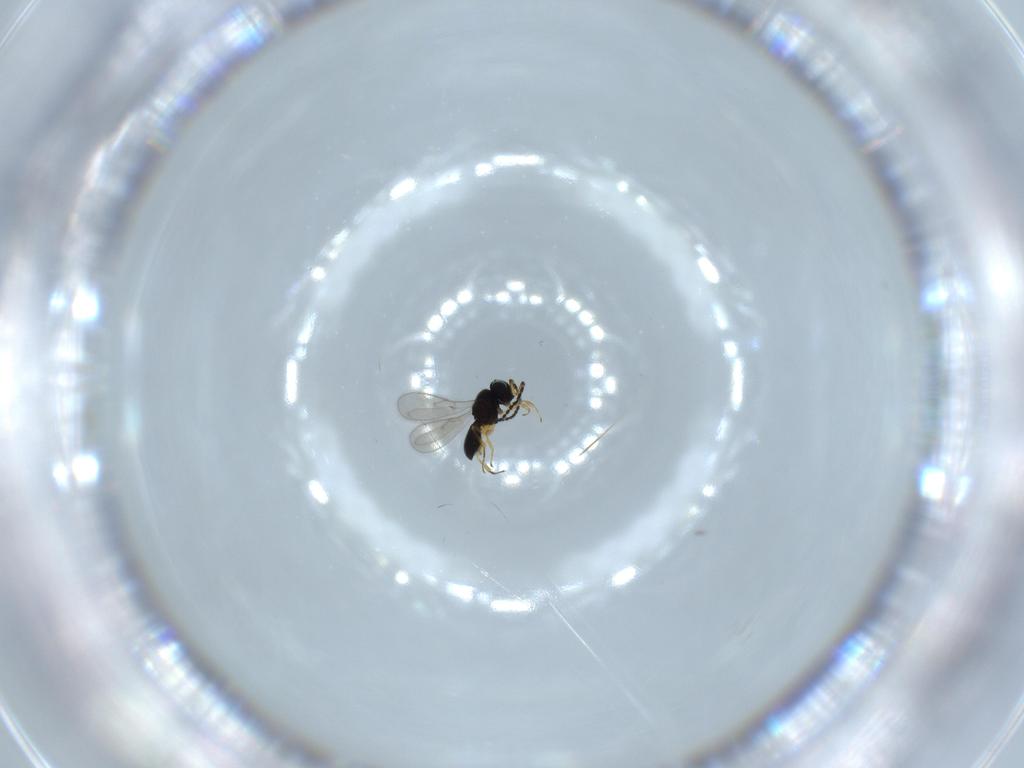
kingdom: Animalia
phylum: Arthropoda
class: Insecta
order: Hymenoptera
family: Scelionidae
